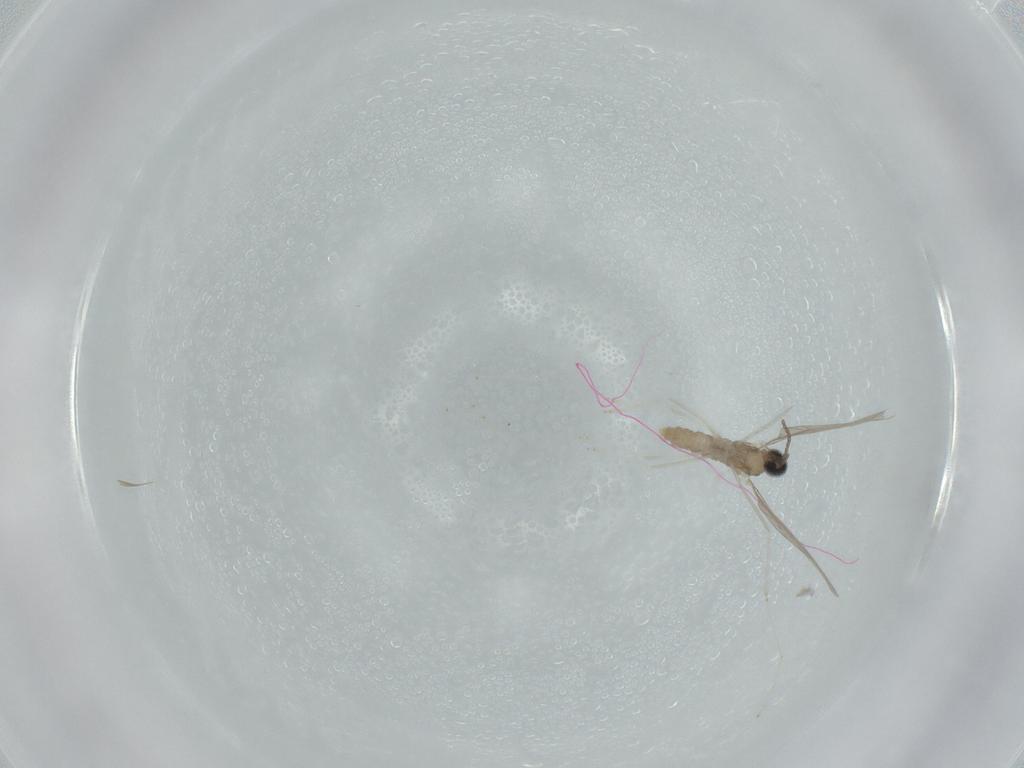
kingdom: Animalia
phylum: Arthropoda
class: Insecta
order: Diptera
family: Cecidomyiidae
